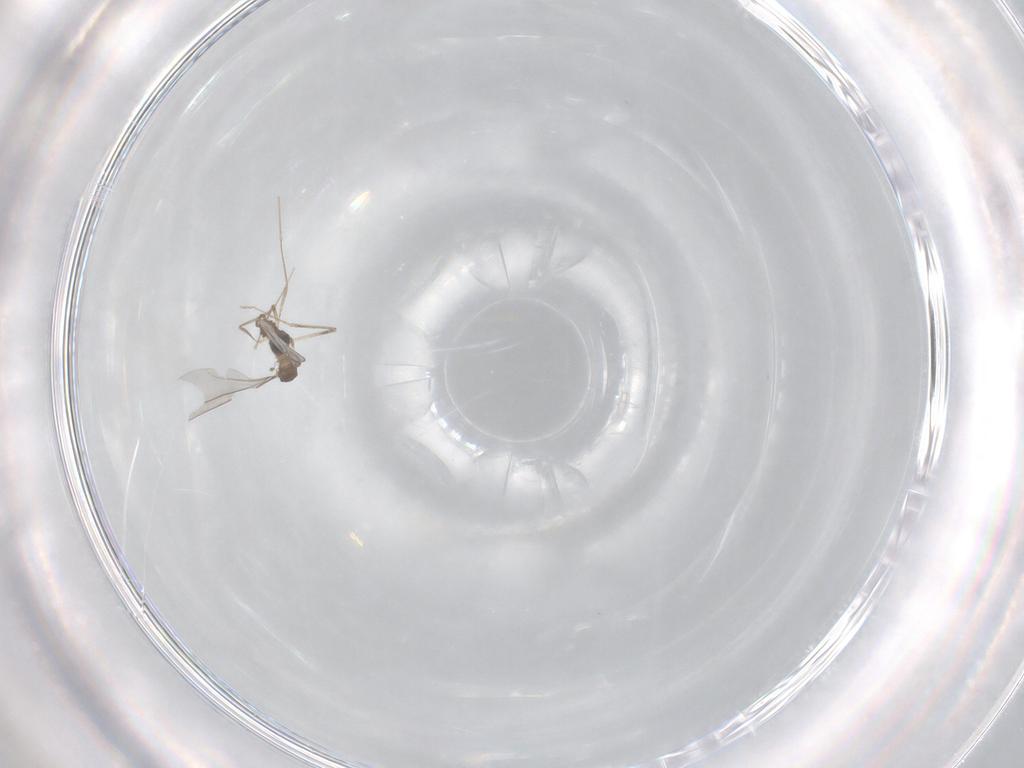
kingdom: Animalia
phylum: Arthropoda
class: Insecta
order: Diptera
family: Cecidomyiidae
